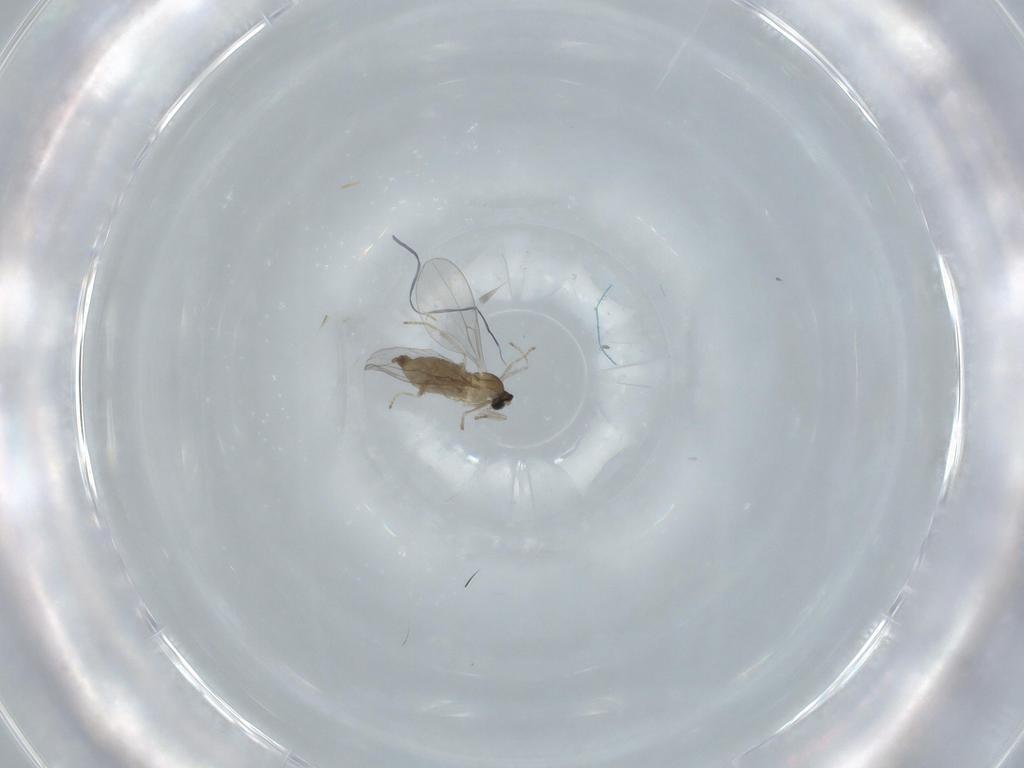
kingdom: Animalia
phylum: Arthropoda
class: Insecta
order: Diptera
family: Cecidomyiidae
